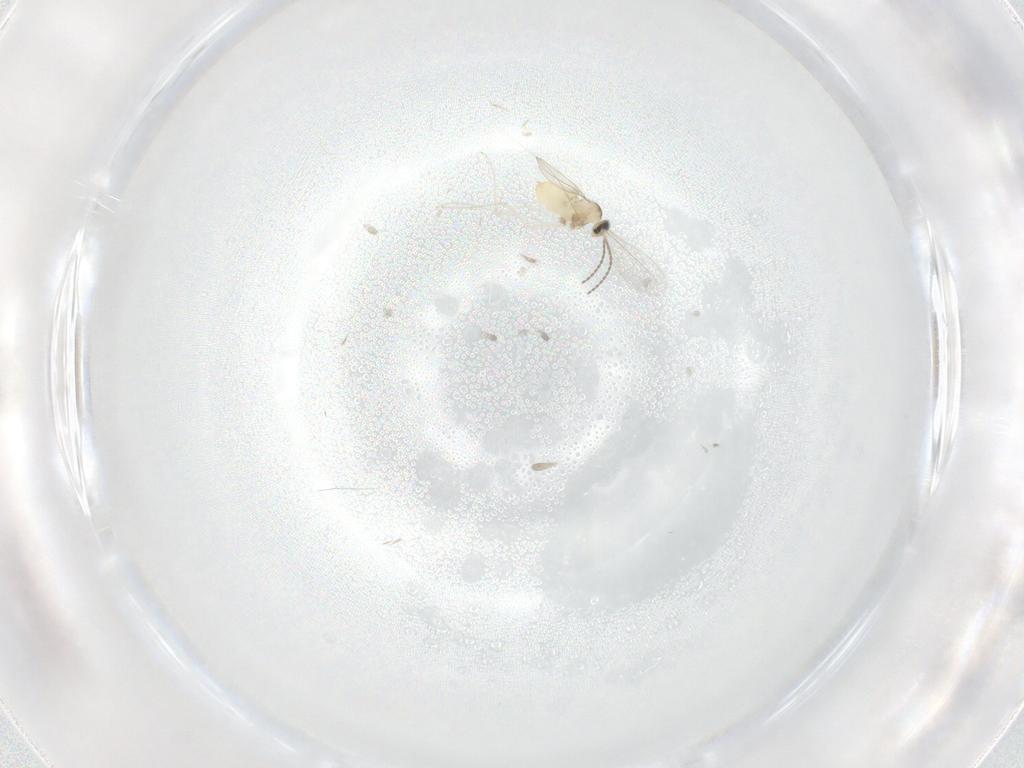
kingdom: Animalia
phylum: Arthropoda
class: Insecta
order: Diptera
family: Cecidomyiidae
